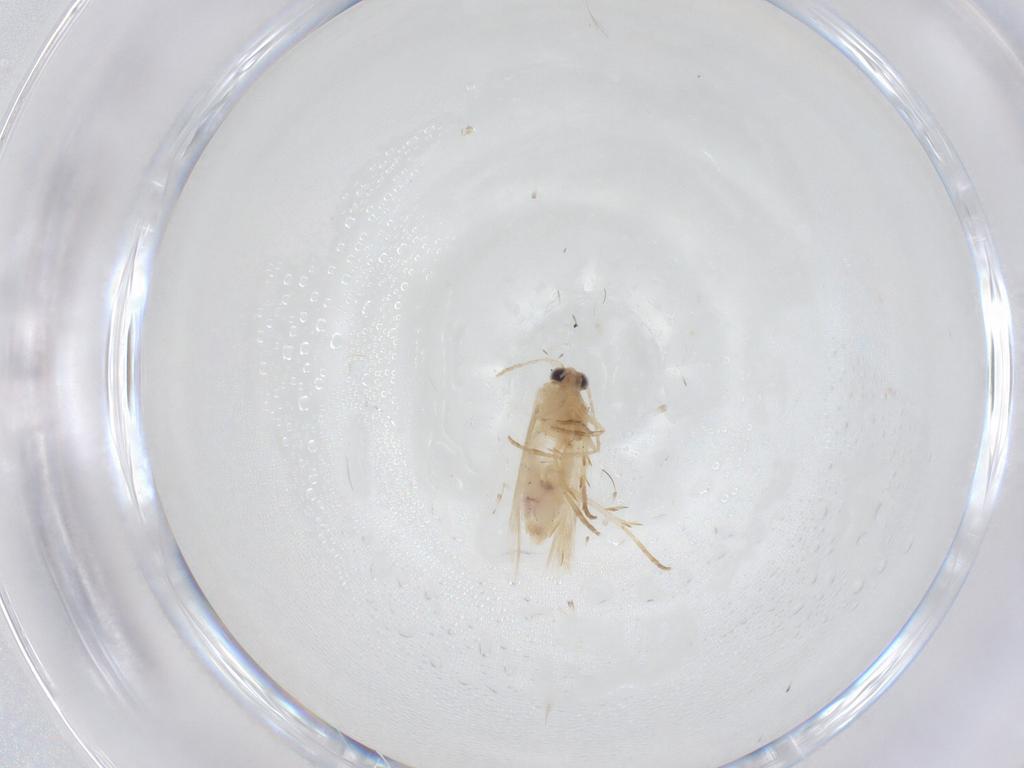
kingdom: Animalia
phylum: Arthropoda
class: Insecta
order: Lepidoptera
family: Nepticulidae
